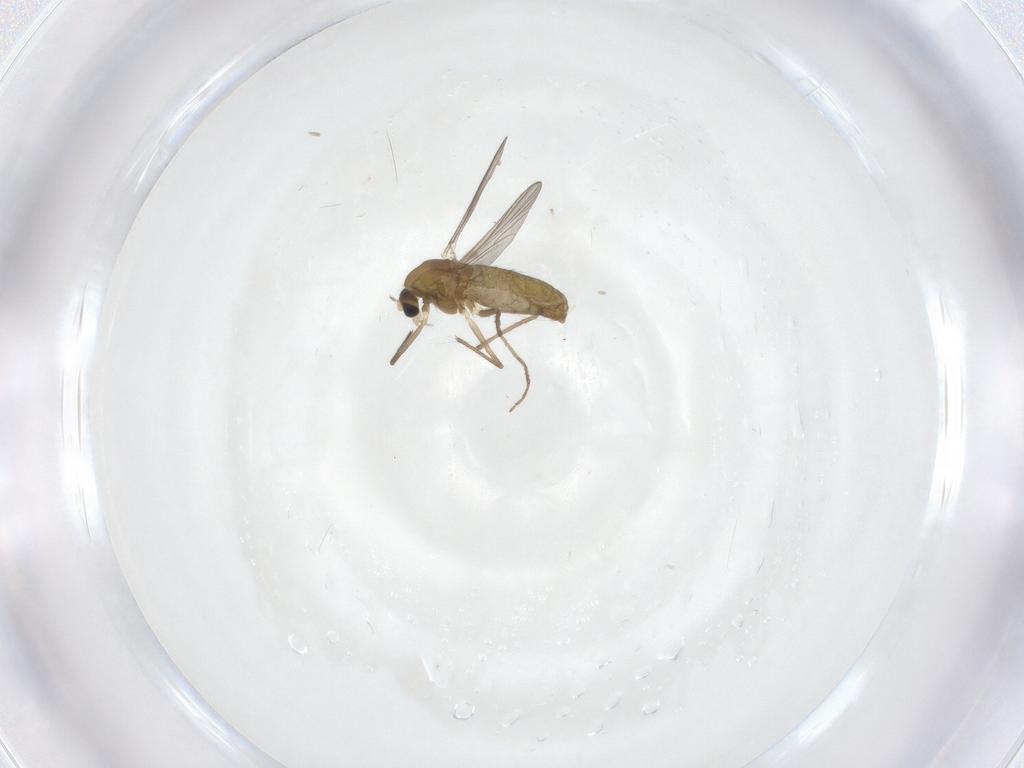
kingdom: Animalia
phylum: Arthropoda
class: Insecta
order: Diptera
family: Chironomidae
